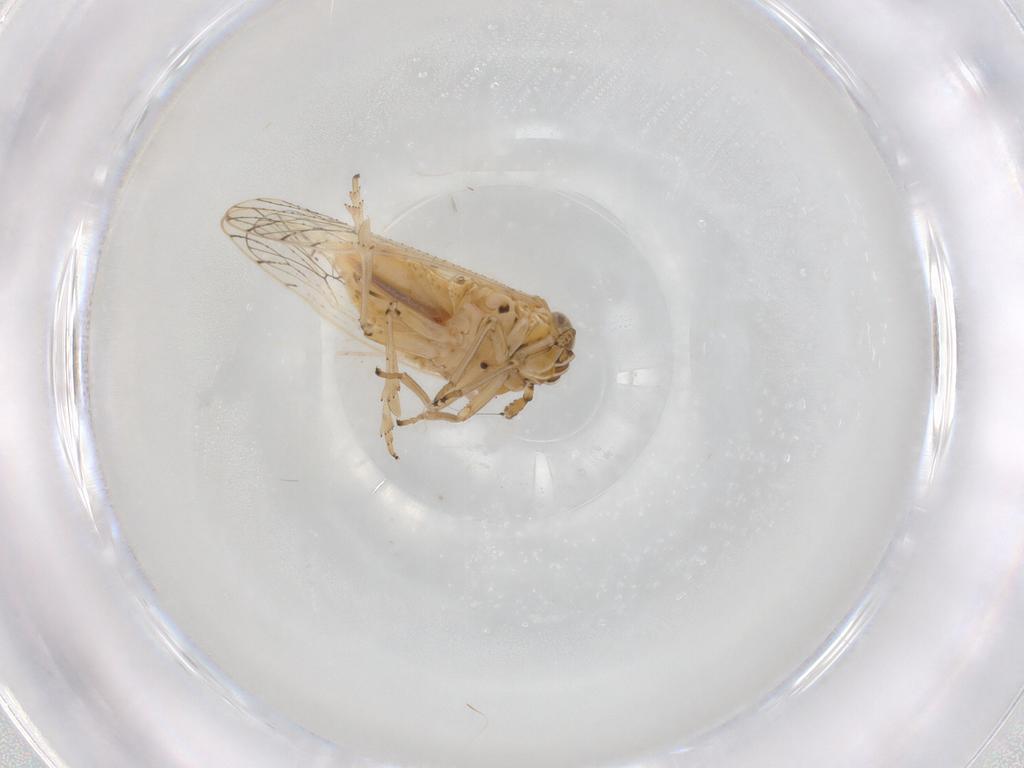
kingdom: Animalia
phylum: Arthropoda
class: Insecta
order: Hemiptera
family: Delphacidae
